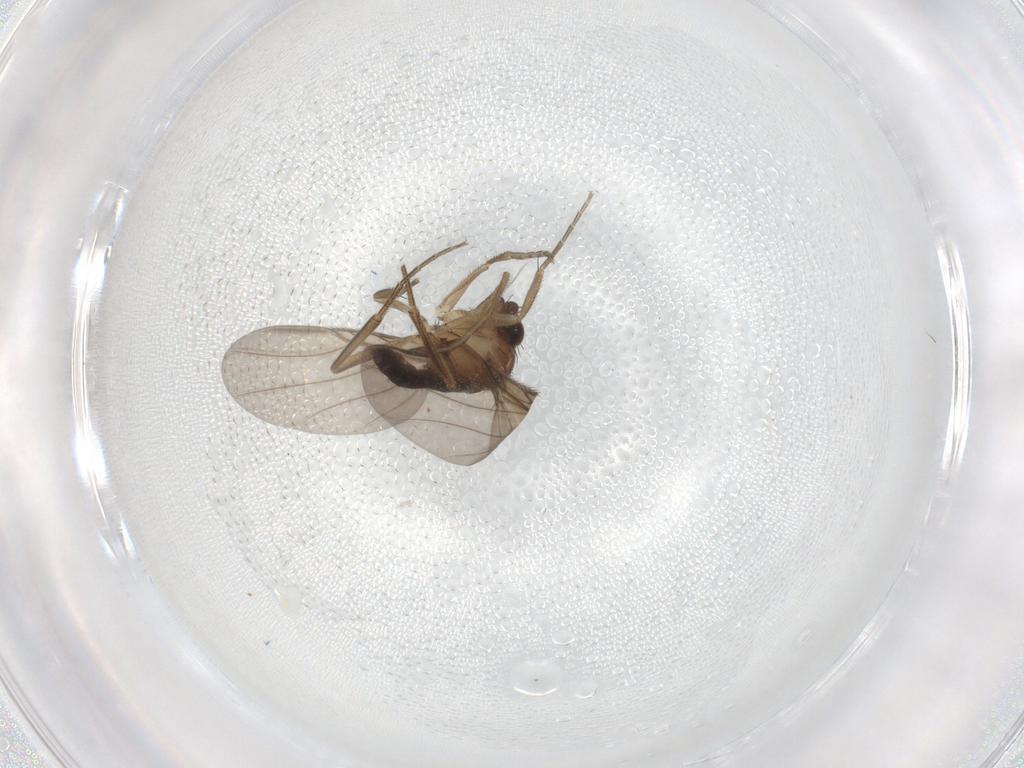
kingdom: Animalia
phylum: Arthropoda
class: Insecta
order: Diptera
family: Phoridae
